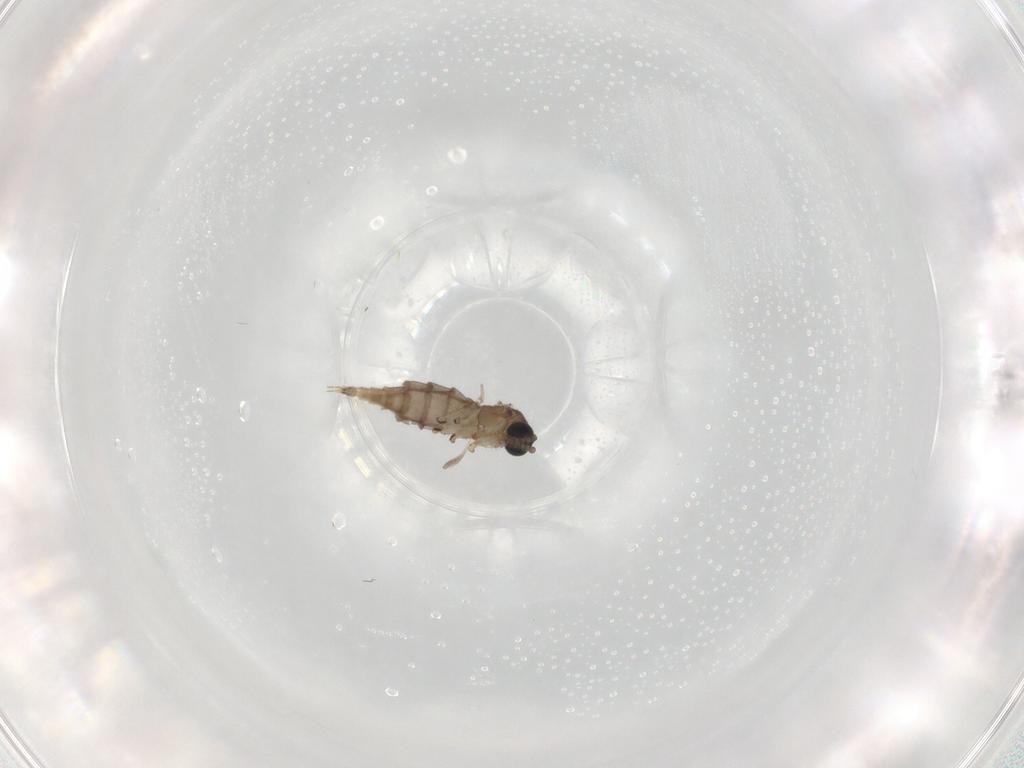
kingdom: Animalia
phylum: Arthropoda
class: Insecta
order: Diptera
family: Sciaridae
